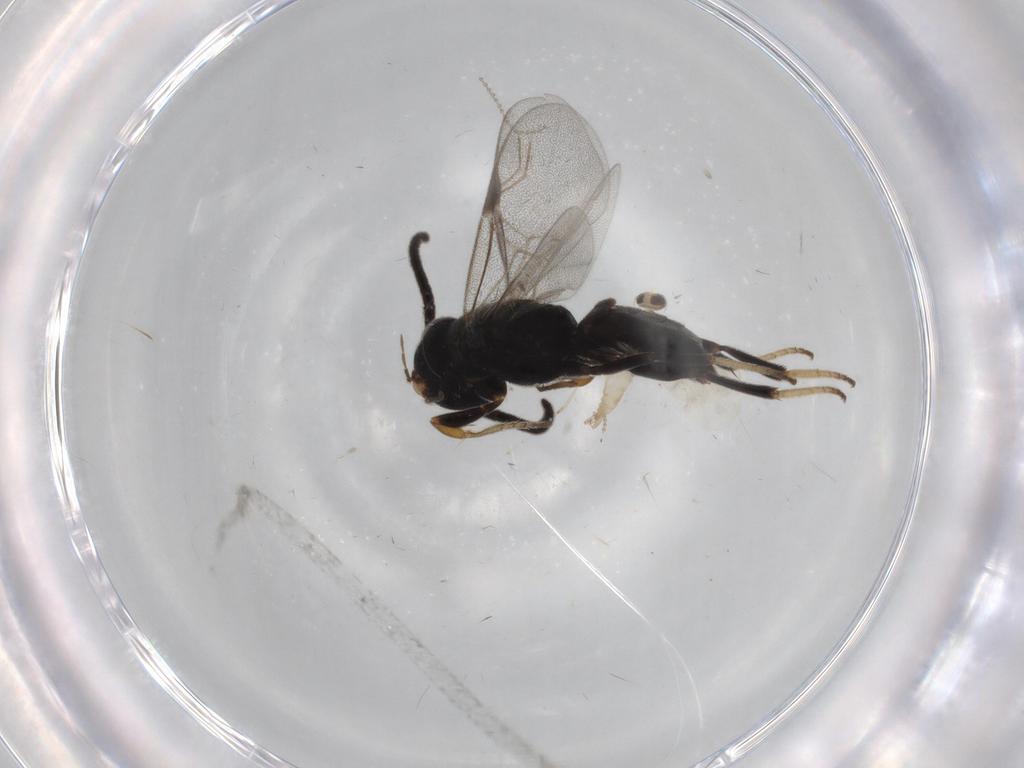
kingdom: Animalia
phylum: Arthropoda
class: Insecta
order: Hymenoptera
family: Dryinidae
